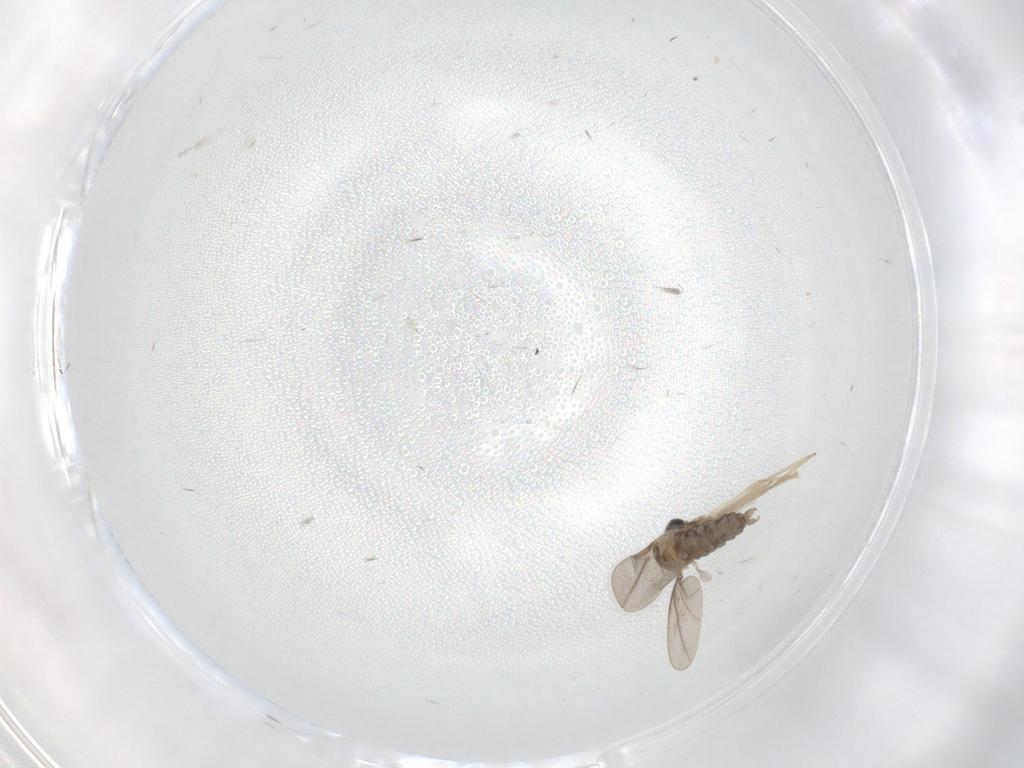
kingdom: Animalia
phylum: Arthropoda
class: Insecta
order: Diptera
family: Cecidomyiidae
